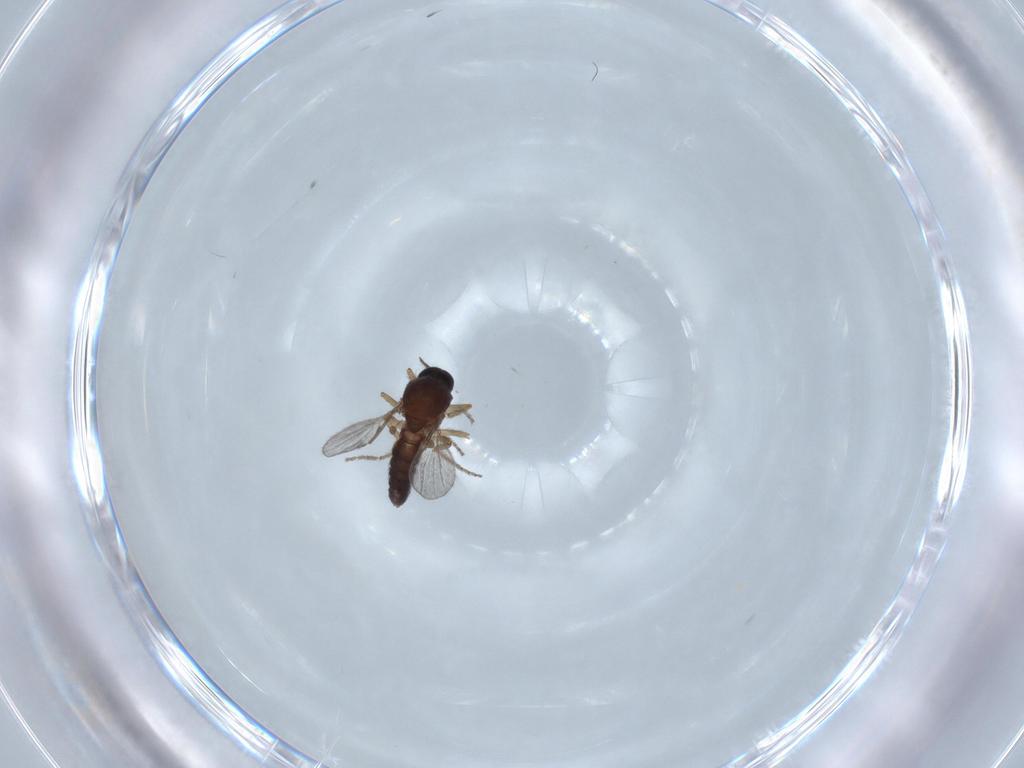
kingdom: Animalia
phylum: Arthropoda
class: Insecta
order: Diptera
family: Ceratopogonidae
